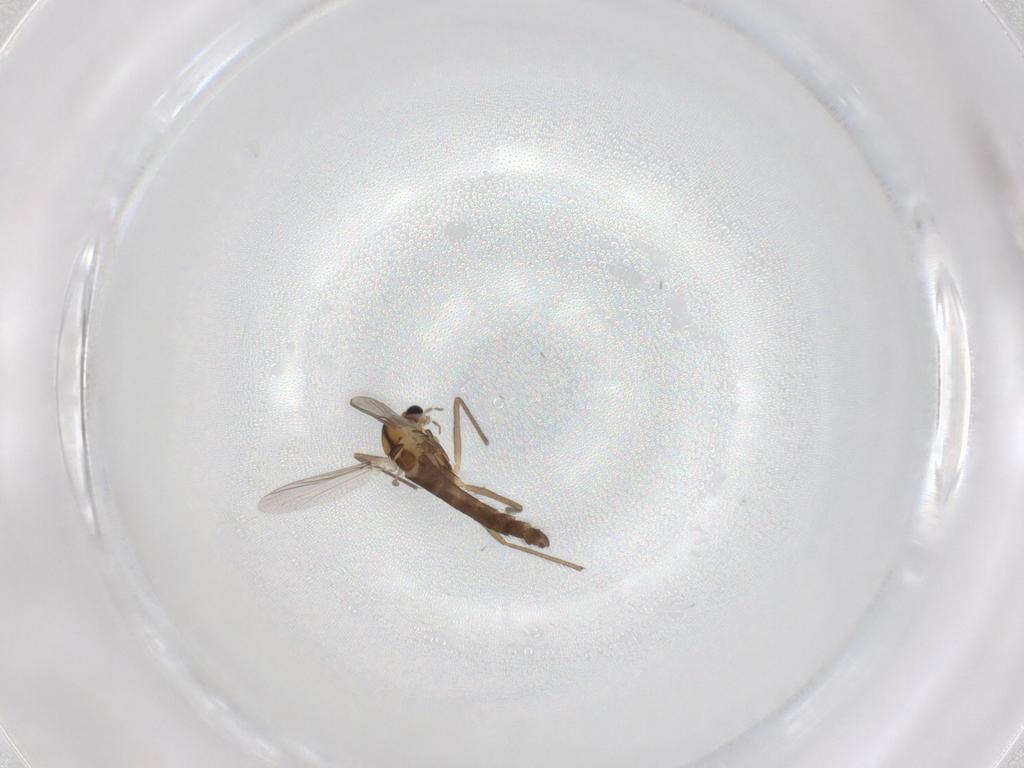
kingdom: Animalia
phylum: Arthropoda
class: Insecta
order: Diptera
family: Chironomidae
